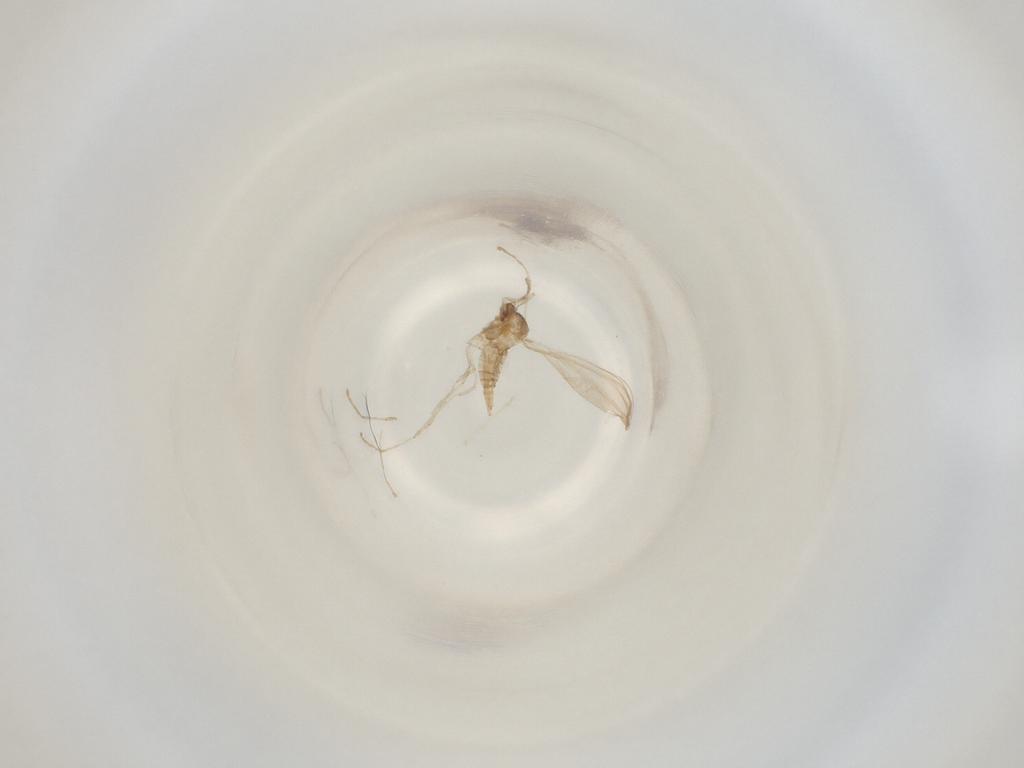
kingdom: Animalia
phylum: Arthropoda
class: Insecta
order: Diptera
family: Cecidomyiidae
